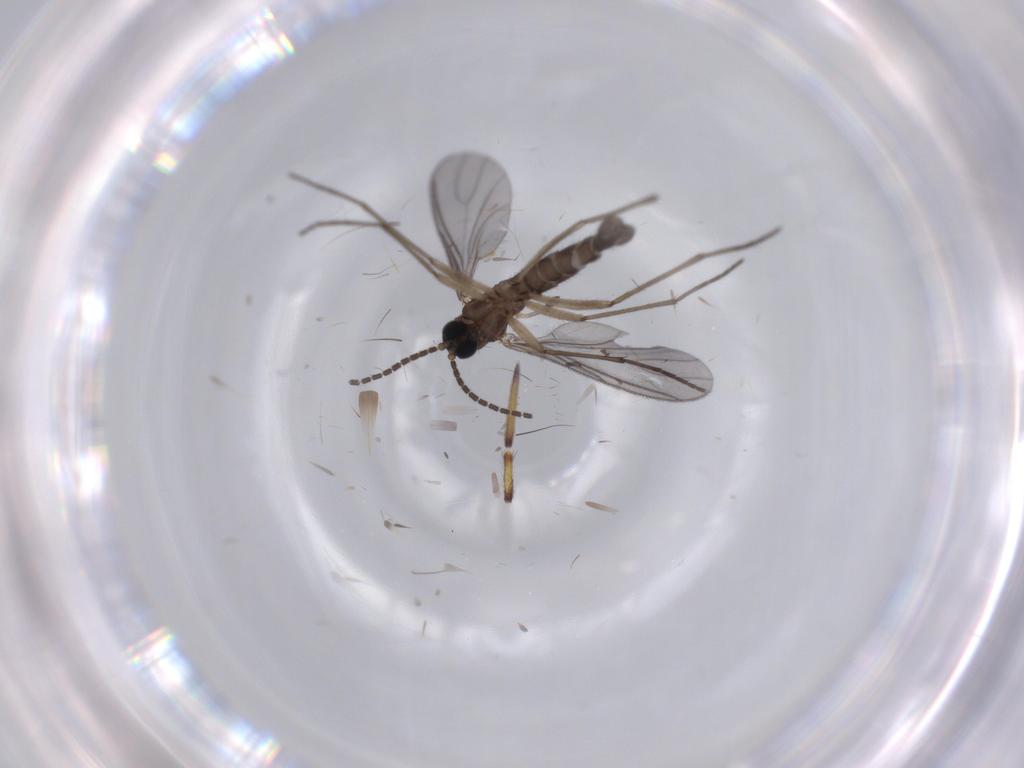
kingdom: Animalia
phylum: Arthropoda
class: Insecta
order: Diptera
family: Sciaridae
